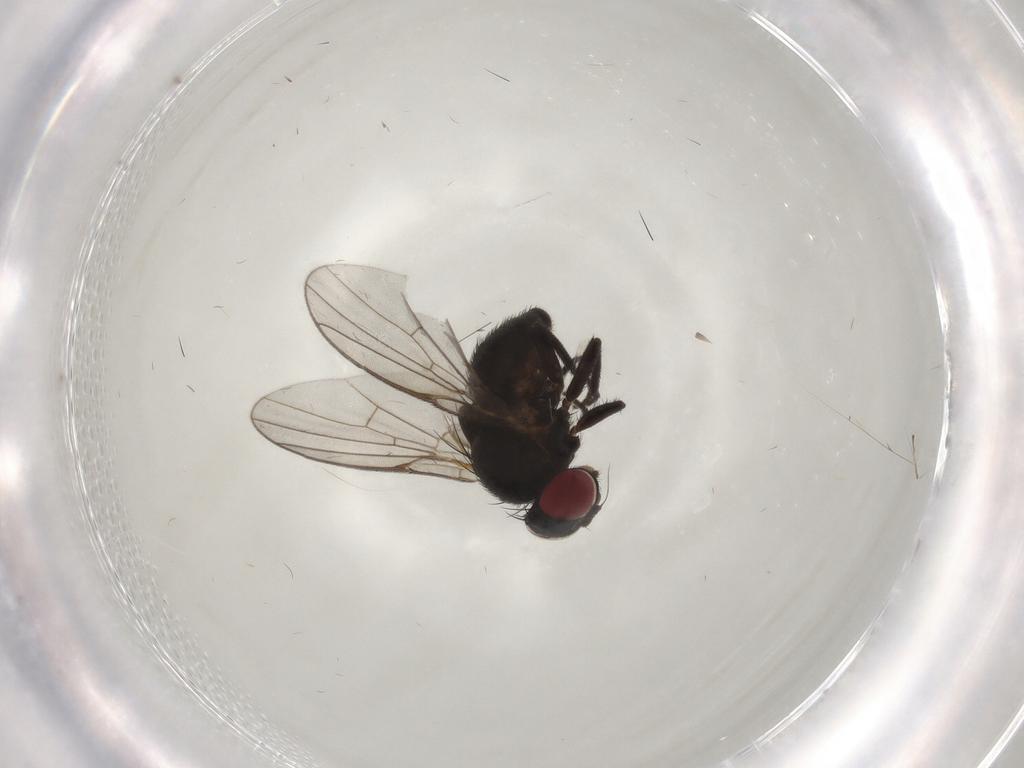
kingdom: Animalia
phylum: Arthropoda
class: Insecta
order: Diptera
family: Agromyzidae
